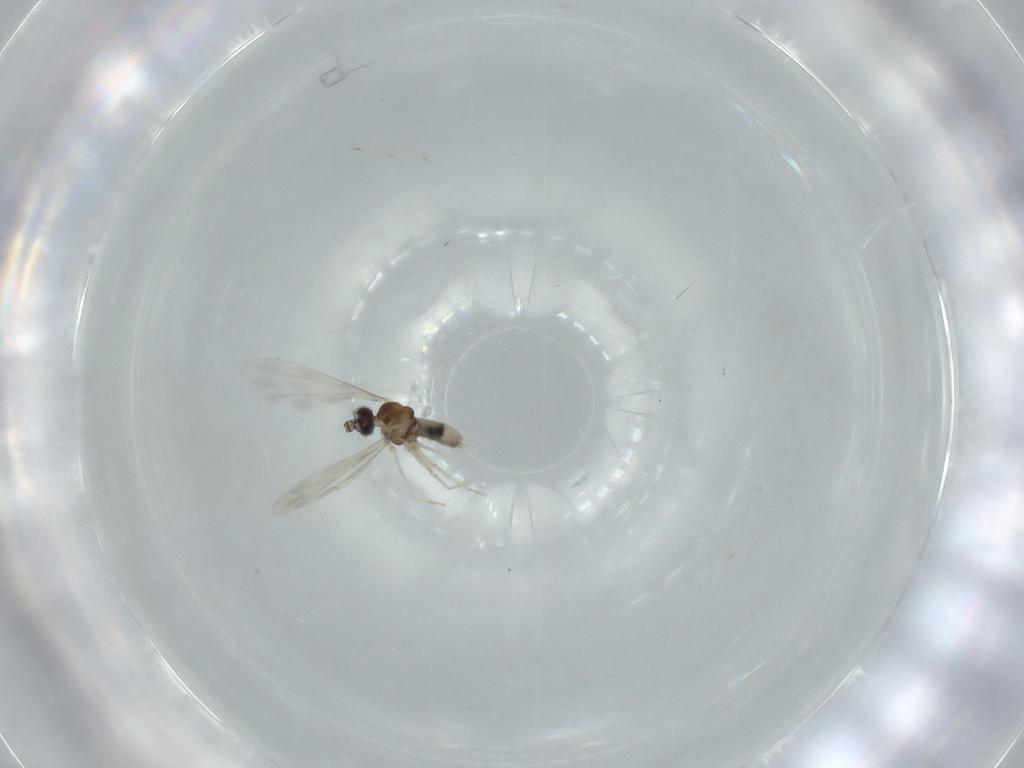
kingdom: Animalia
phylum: Arthropoda
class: Insecta
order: Diptera
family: Cecidomyiidae
